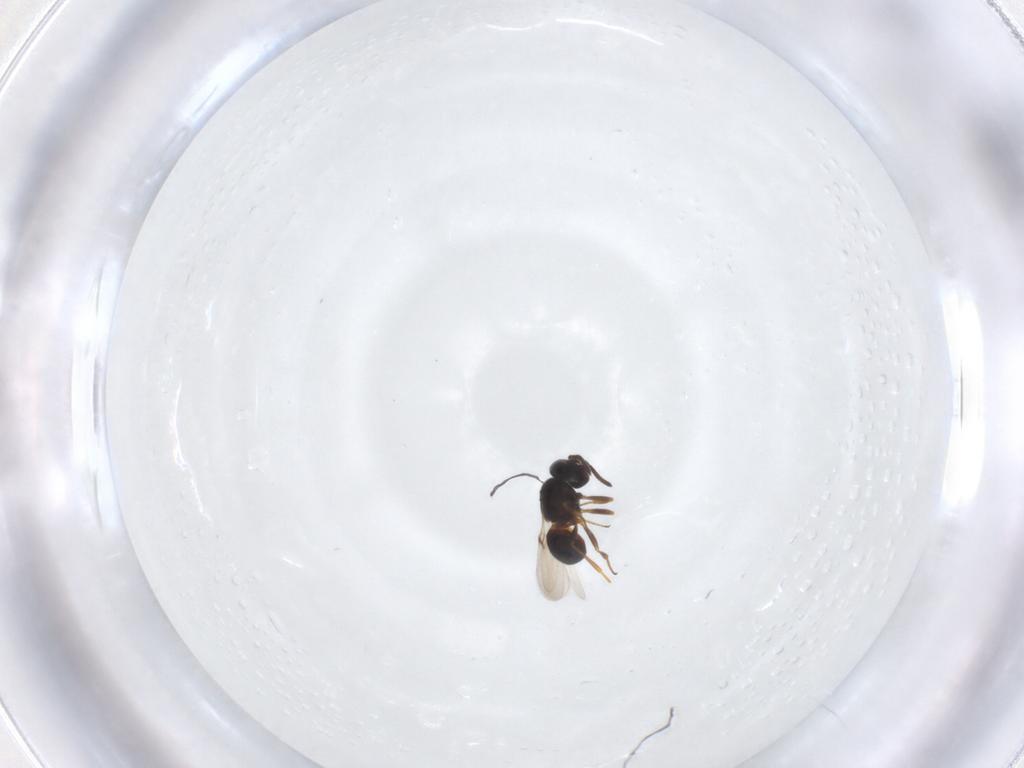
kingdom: Animalia
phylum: Arthropoda
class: Arachnida
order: Araneae
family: Pholcidae
